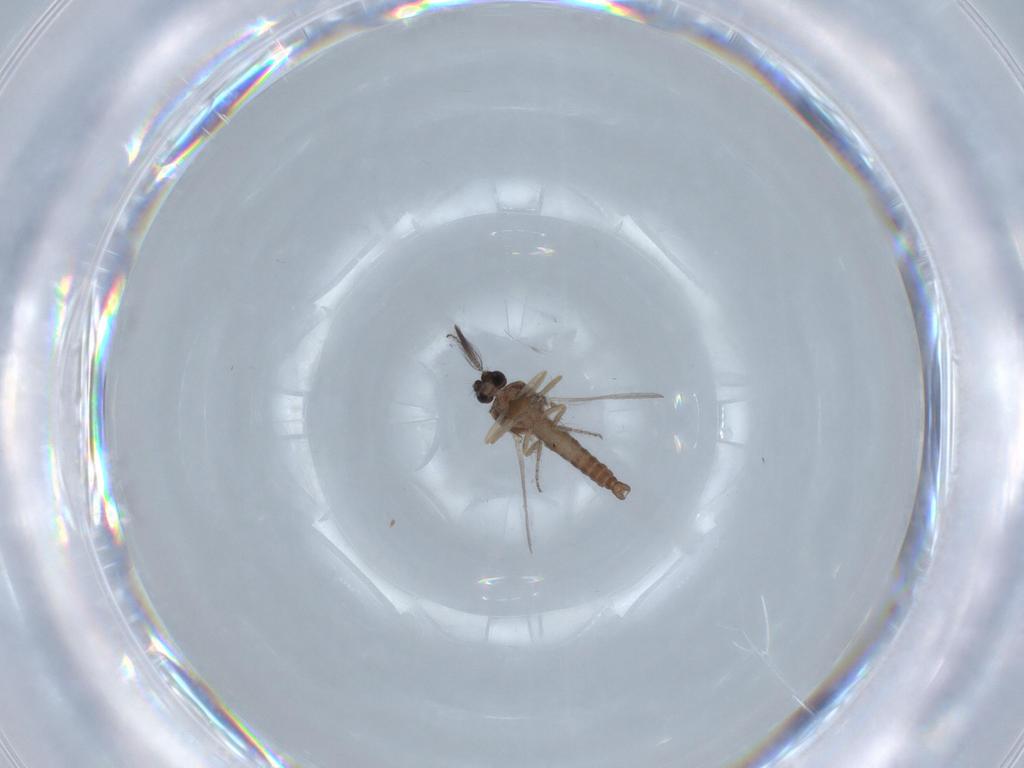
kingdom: Animalia
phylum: Arthropoda
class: Insecta
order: Diptera
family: Ceratopogonidae
